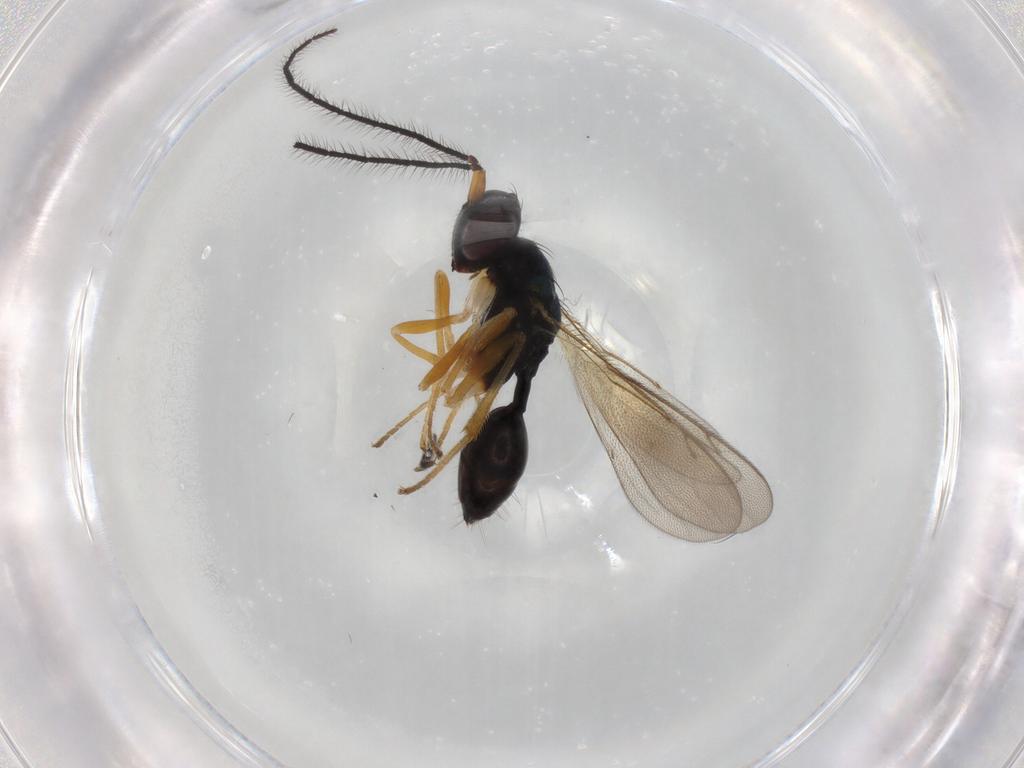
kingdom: Animalia
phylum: Arthropoda
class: Insecta
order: Hymenoptera
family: Diparidae
